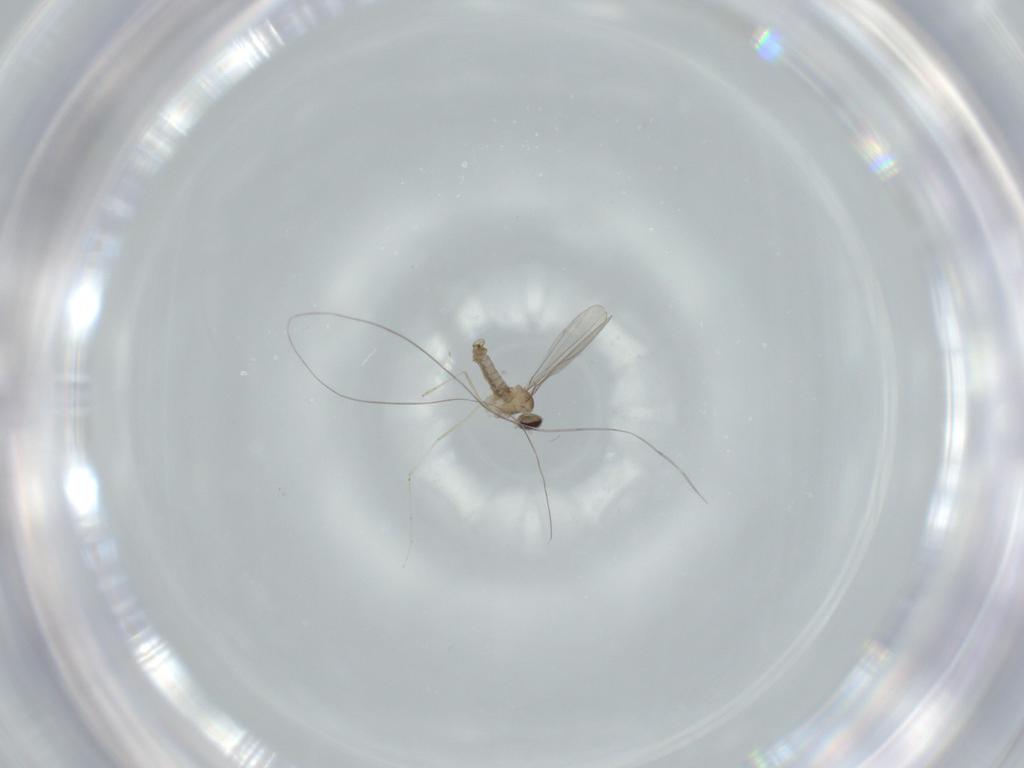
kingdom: Animalia
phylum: Arthropoda
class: Insecta
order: Diptera
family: Cecidomyiidae
